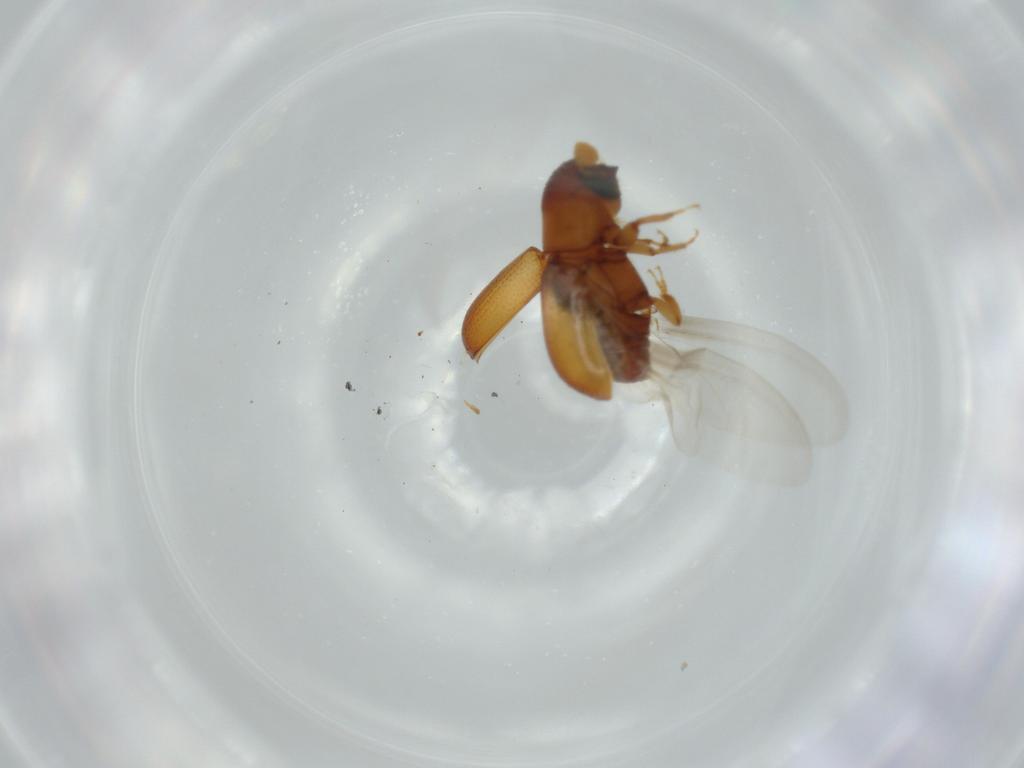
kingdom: Animalia
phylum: Arthropoda
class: Insecta
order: Coleoptera
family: Curculionidae
